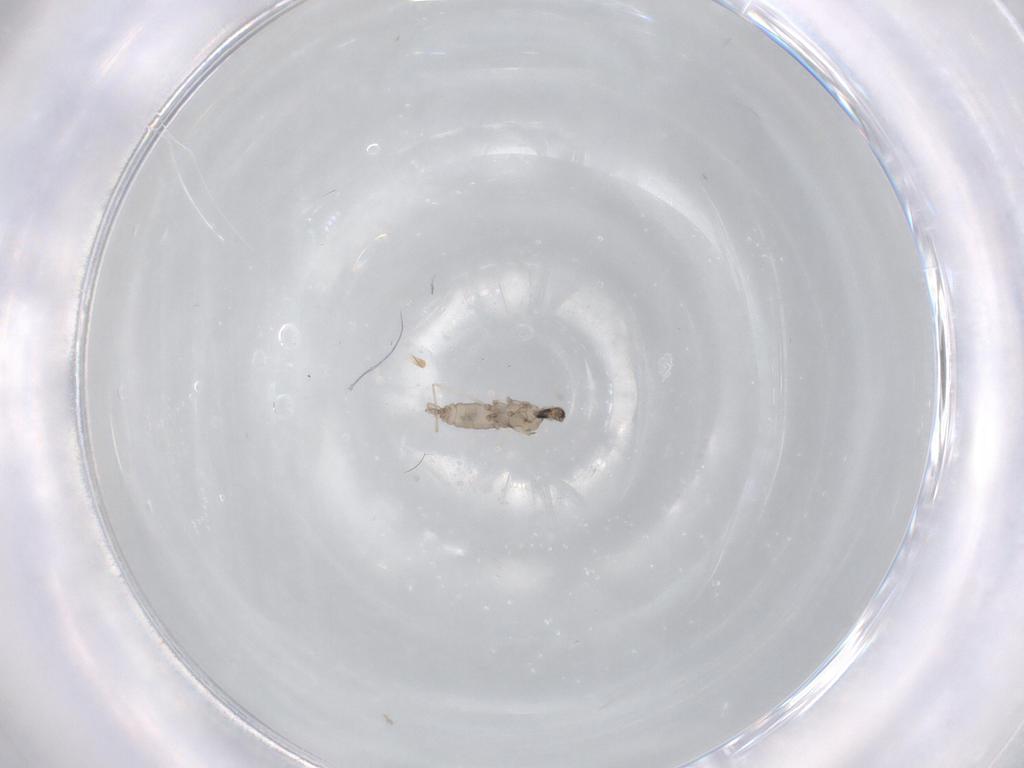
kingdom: Animalia
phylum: Arthropoda
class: Insecta
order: Diptera
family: Cecidomyiidae
